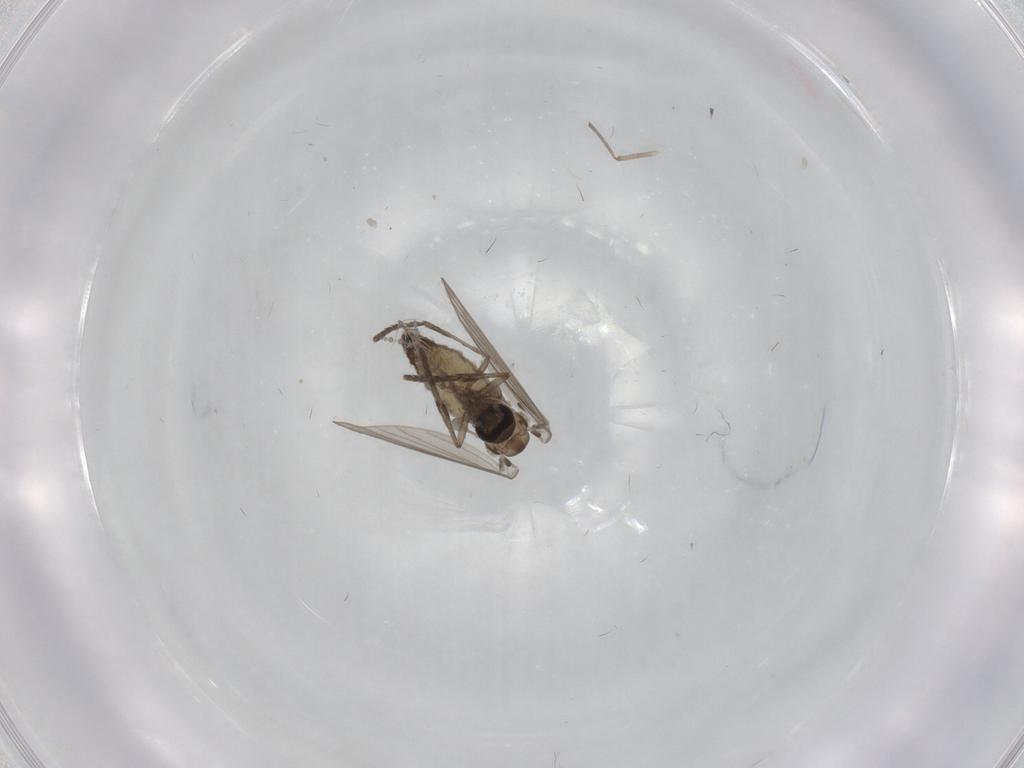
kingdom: Animalia
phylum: Arthropoda
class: Insecta
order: Diptera
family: Psychodidae
